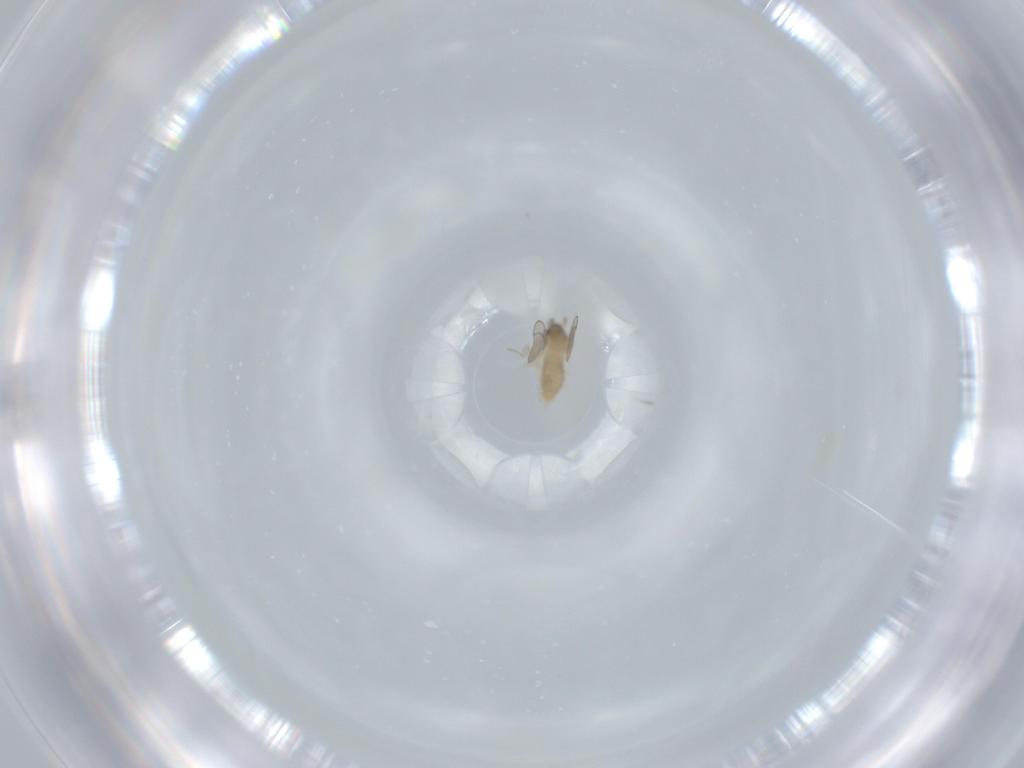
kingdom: Animalia
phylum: Arthropoda
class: Insecta
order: Diptera
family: Cecidomyiidae
